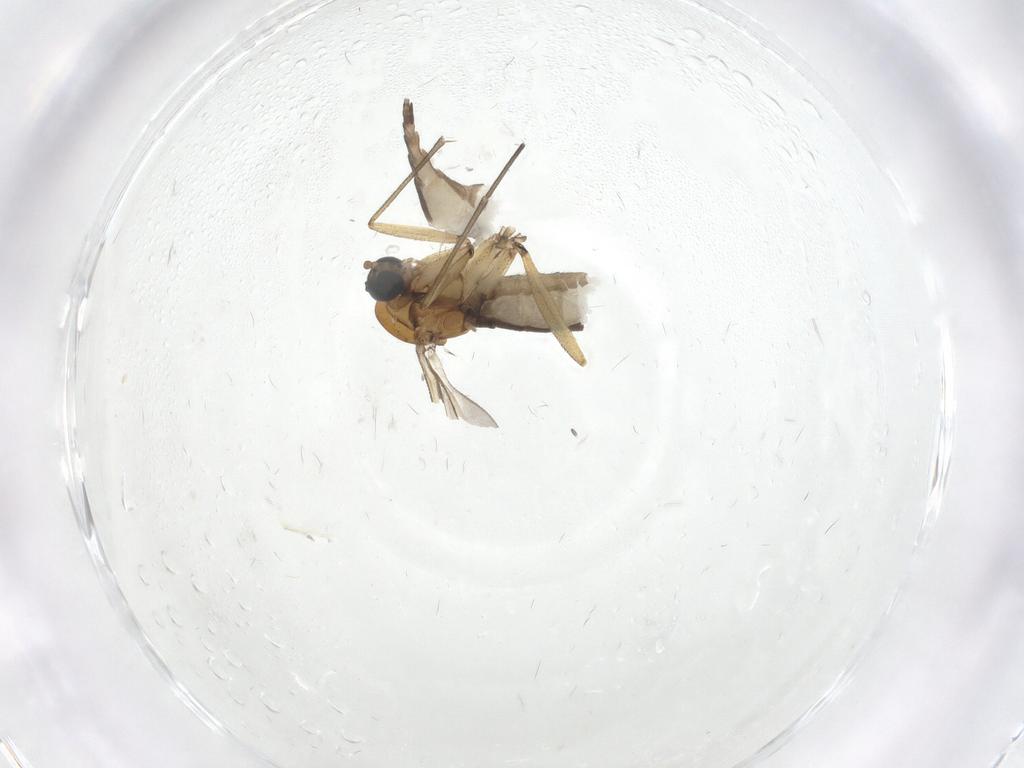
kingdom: Animalia
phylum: Arthropoda
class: Insecta
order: Diptera
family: Sciaridae
